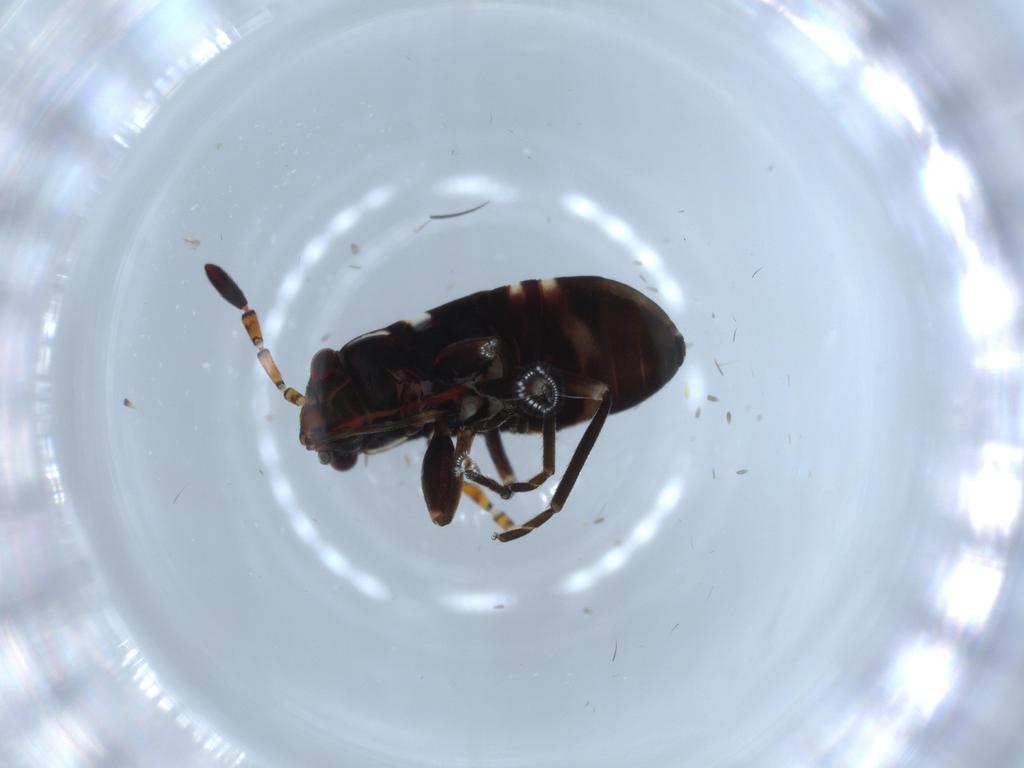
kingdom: Animalia
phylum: Arthropoda
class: Insecta
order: Hemiptera
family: Rhyparochromidae
